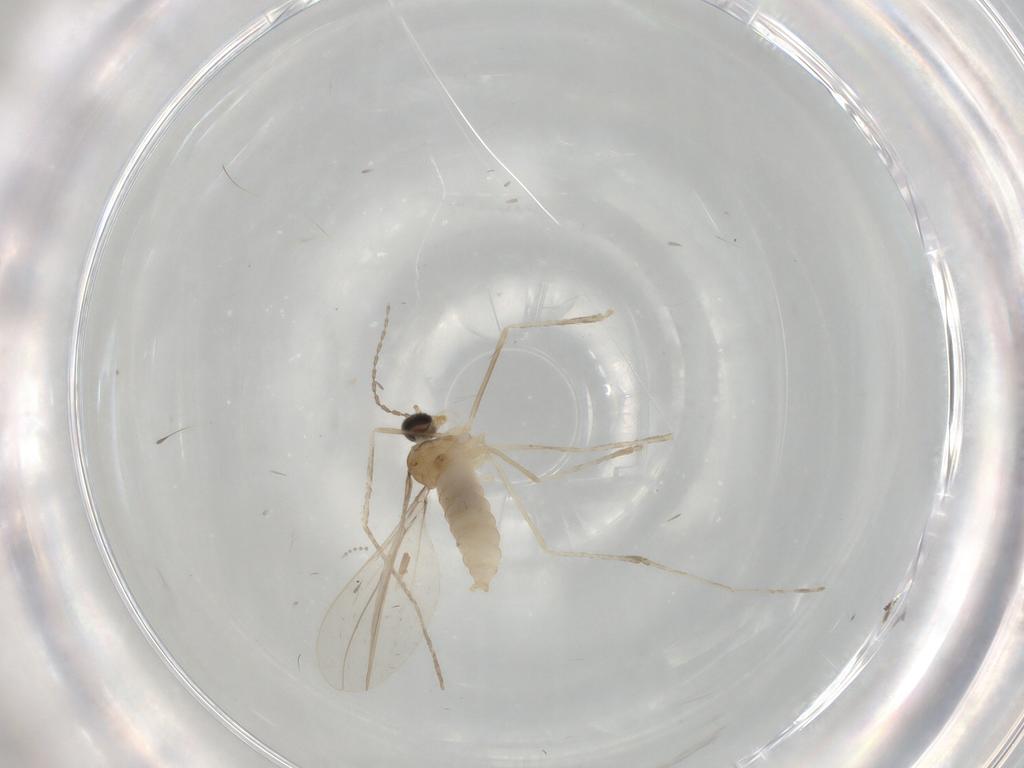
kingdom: Animalia
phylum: Arthropoda
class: Insecta
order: Diptera
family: Cecidomyiidae
